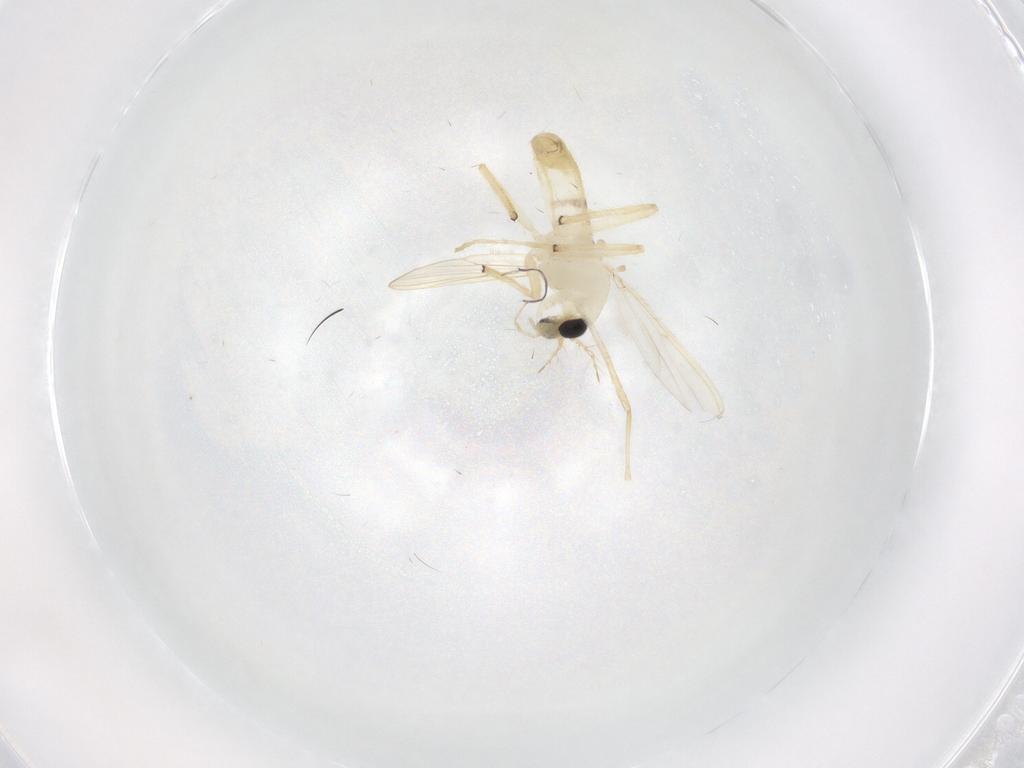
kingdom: Animalia
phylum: Arthropoda
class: Insecta
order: Diptera
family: Chironomidae
